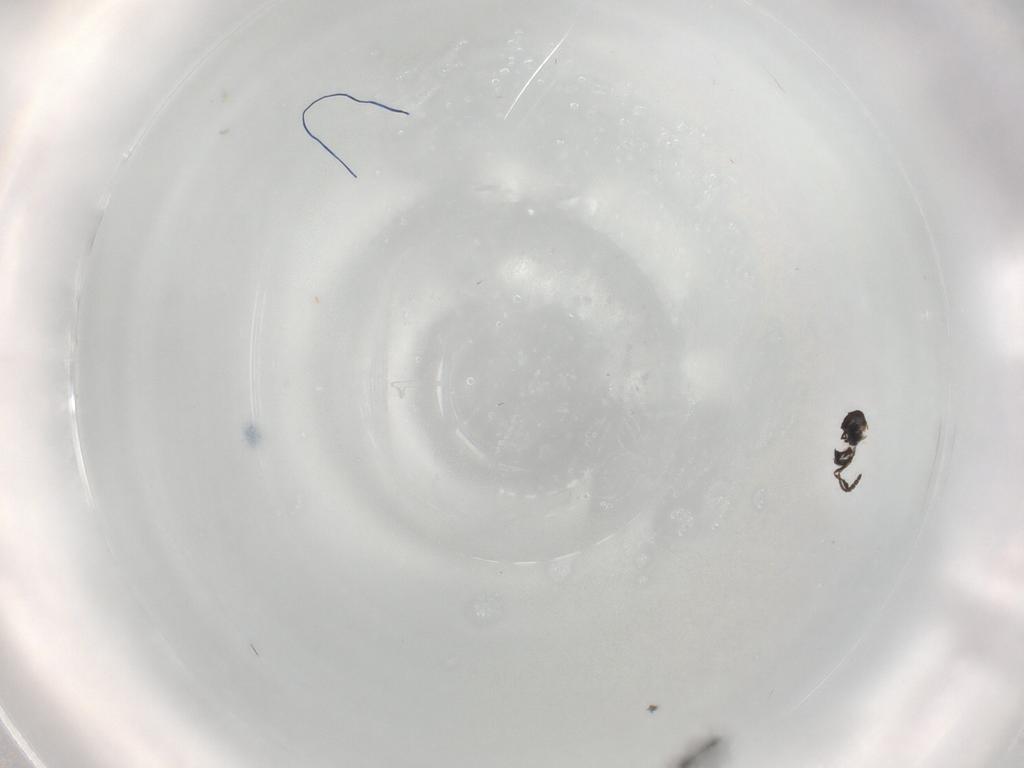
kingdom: Animalia
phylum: Arthropoda
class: Insecta
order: Hymenoptera
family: Scelionidae
